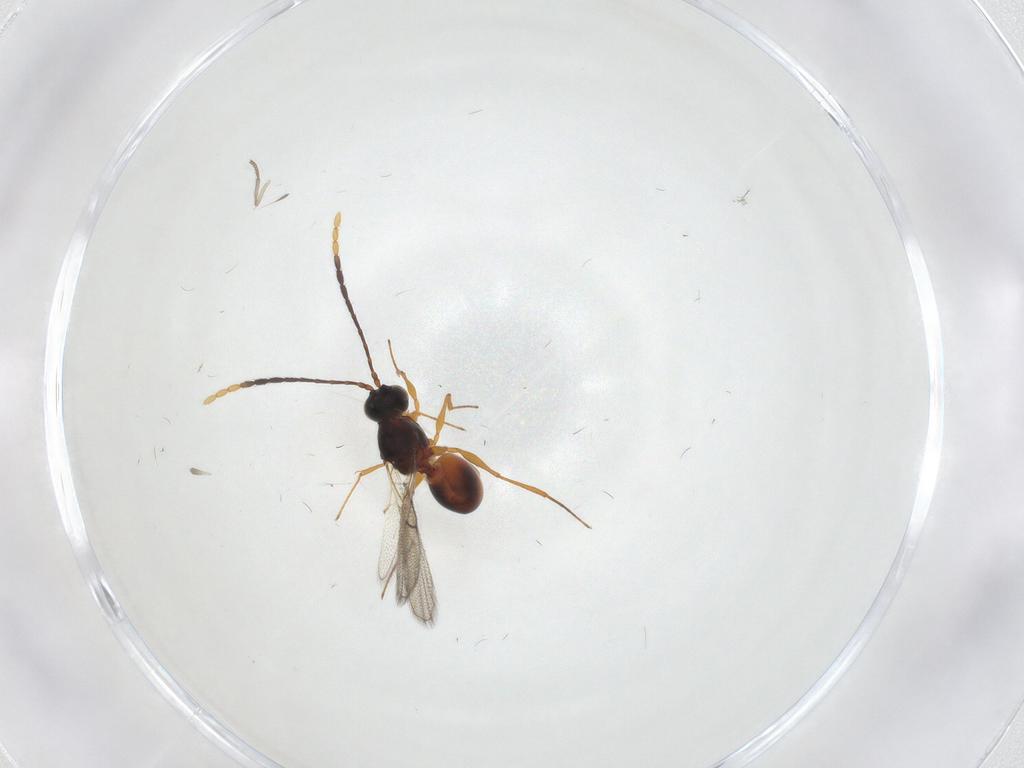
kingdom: Animalia
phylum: Arthropoda
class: Insecta
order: Hymenoptera
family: Figitidae
